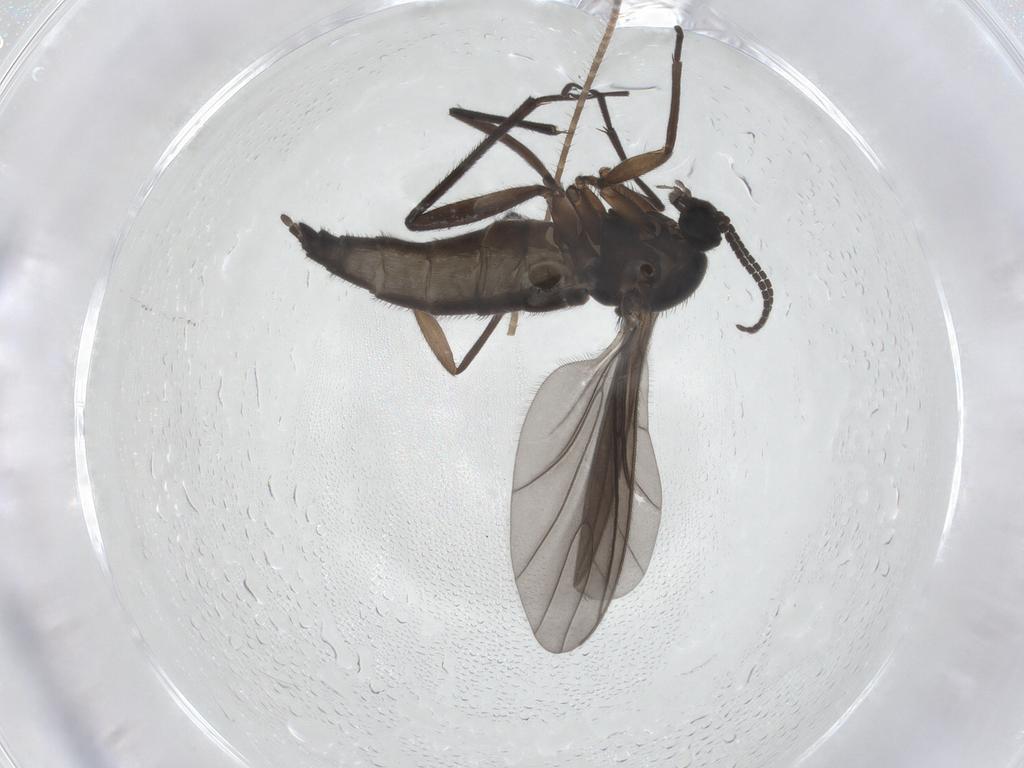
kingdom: Animalia
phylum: Arthropoda
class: Insecta
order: Diptera
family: Sciaridae
